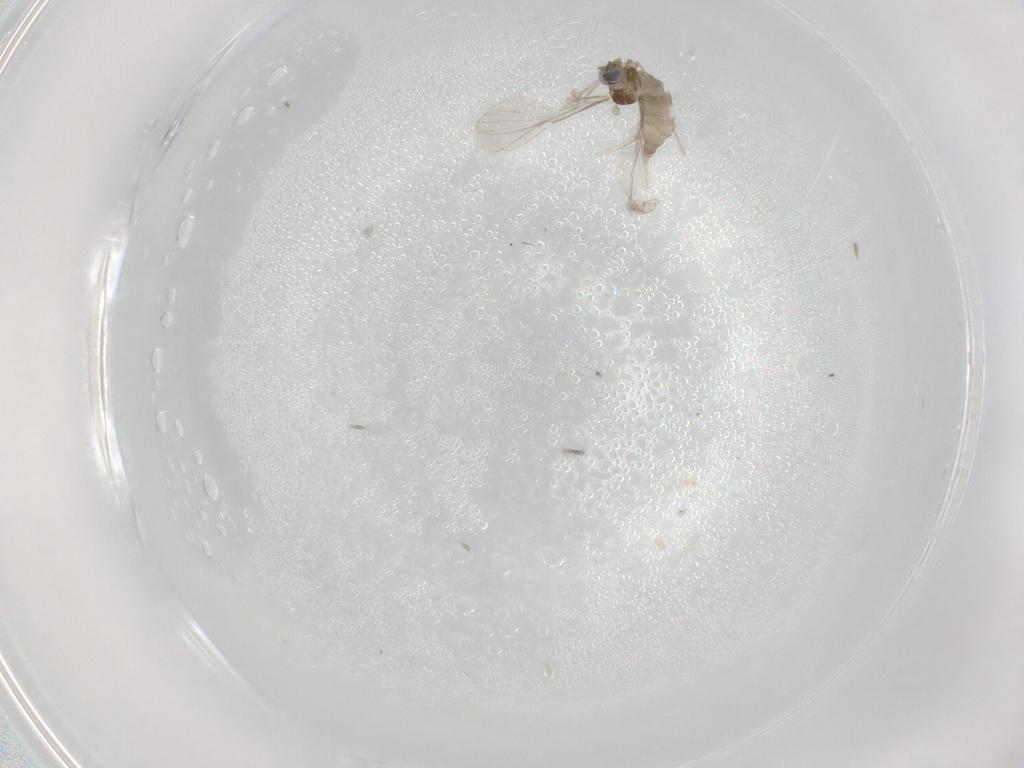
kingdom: Animalia
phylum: Arthropoda
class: Insecta
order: Diptera
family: Cecidomyiidae
